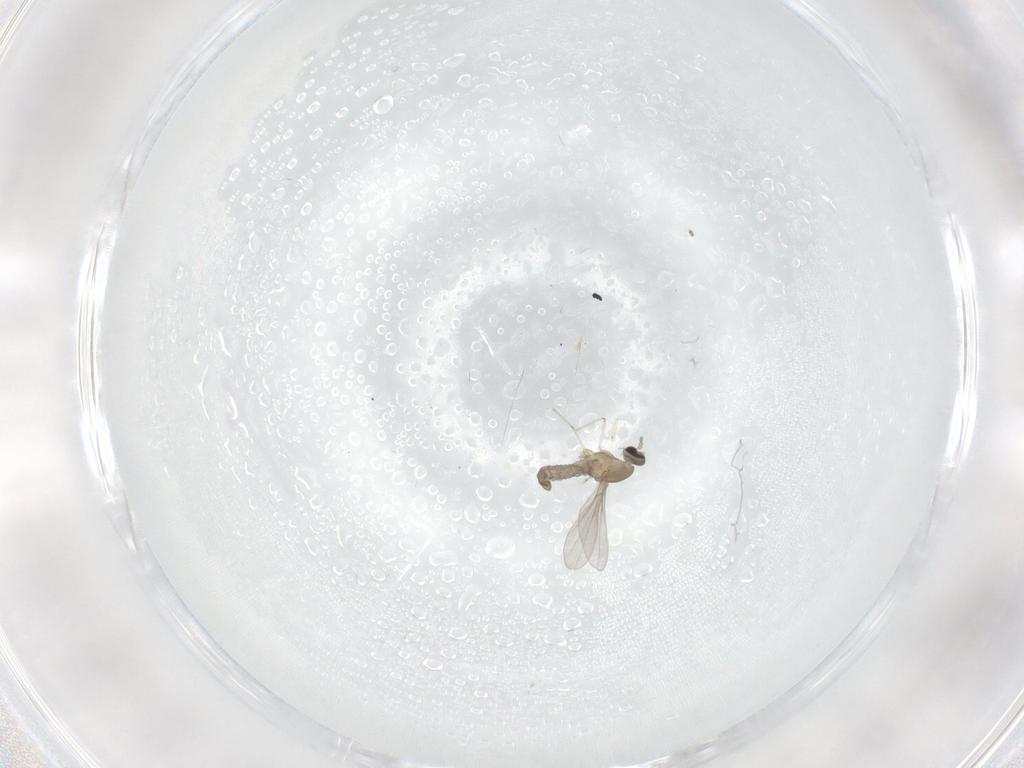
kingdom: Animalia
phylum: Arthropoda
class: Insecta
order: Diptera
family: Cecidomyiidae
